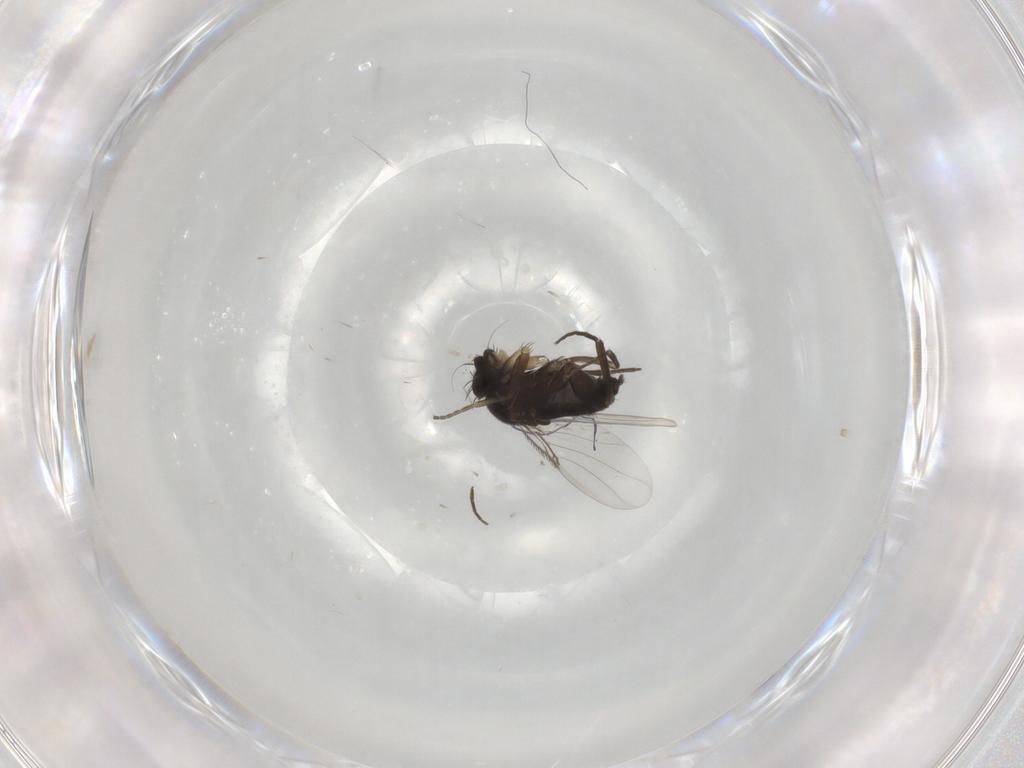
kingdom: Animalia
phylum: Arthropoda
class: Insecta
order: Diptera
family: Phoridae
